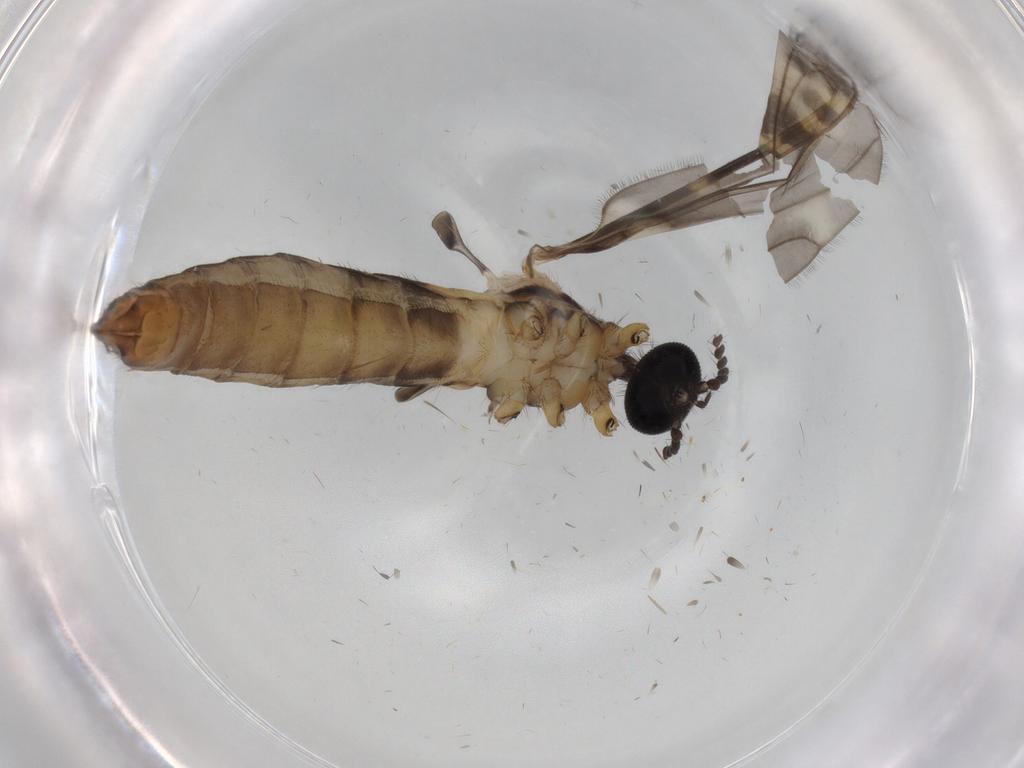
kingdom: Animalia
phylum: Arthropoda
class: Insecta
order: Diptera
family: Limoniidae
